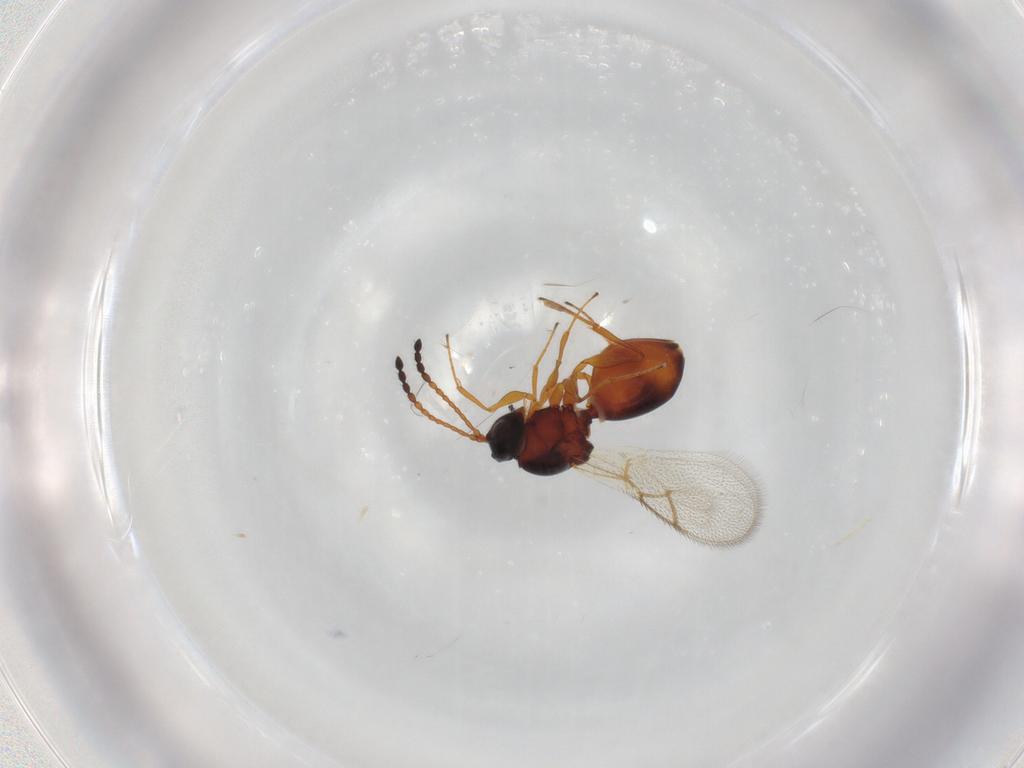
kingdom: Animalia
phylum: Arthropoda
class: Insecta
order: Hymenoptera
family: Figitidae
